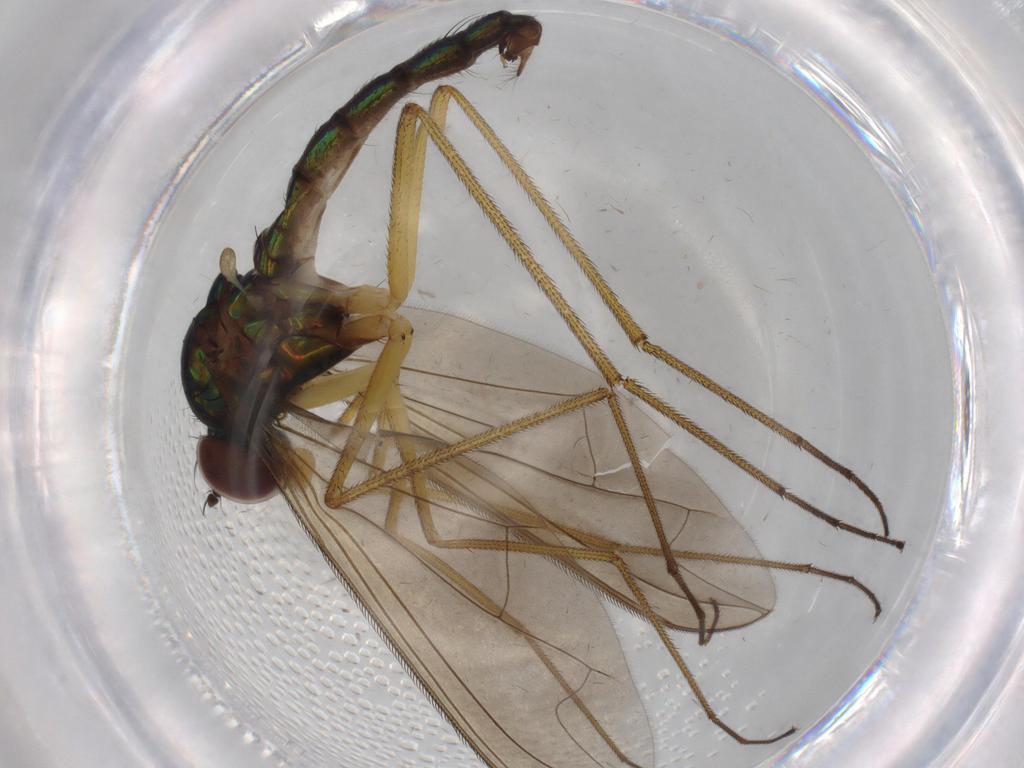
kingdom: Animalia
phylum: Arthropoda
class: Insecta
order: Diptera
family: Dolichopodidae
